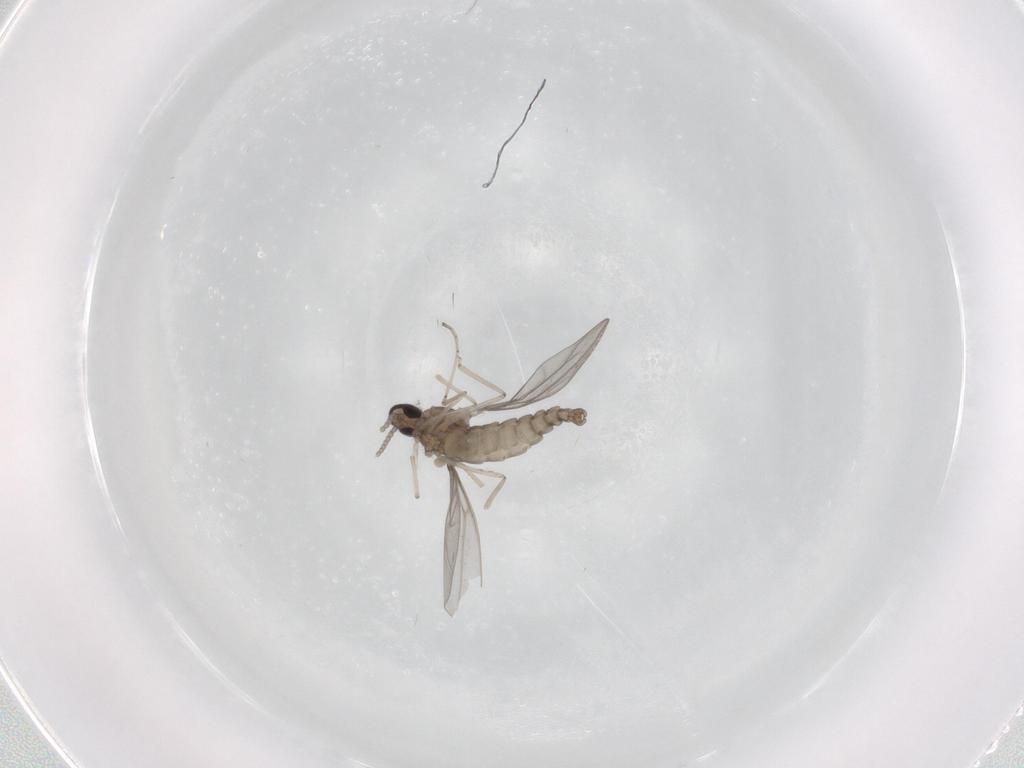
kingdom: Animalia
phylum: Arthropoda
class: Insecta
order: Diptera
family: Cecidomyiidae
